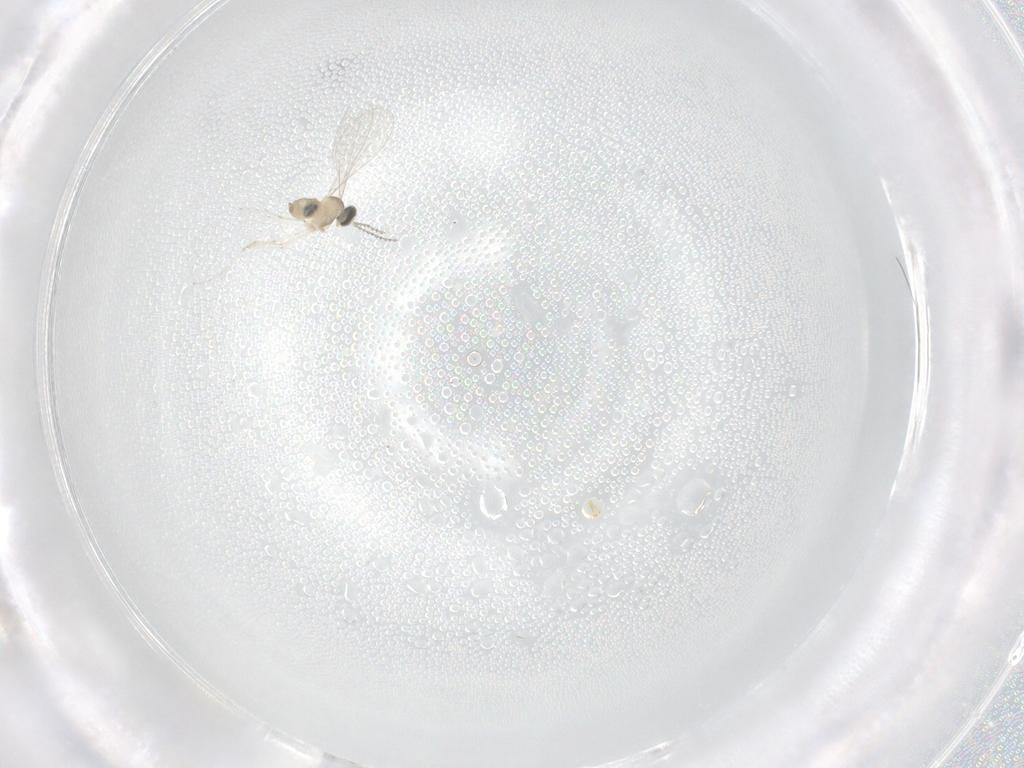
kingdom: Animalia
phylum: Arthropoda
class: Insecta
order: Diptera
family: Cecidomyiidae
